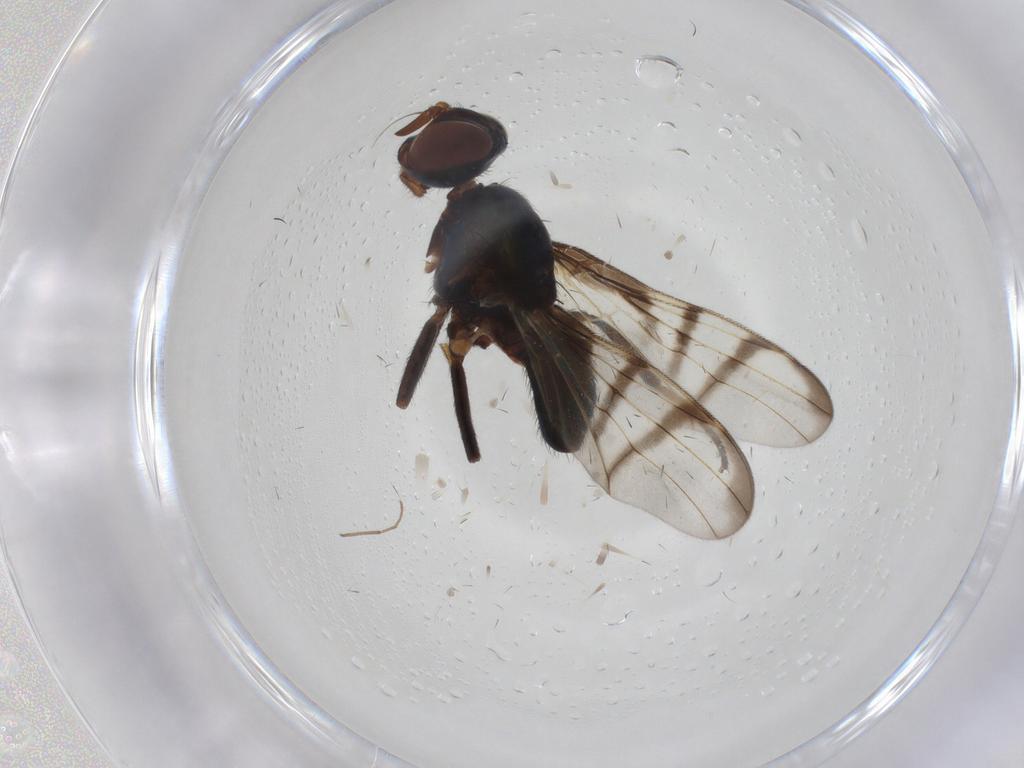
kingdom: Animalia
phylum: Arthropoda
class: Insecta
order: Diptera
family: Platystomatidae
